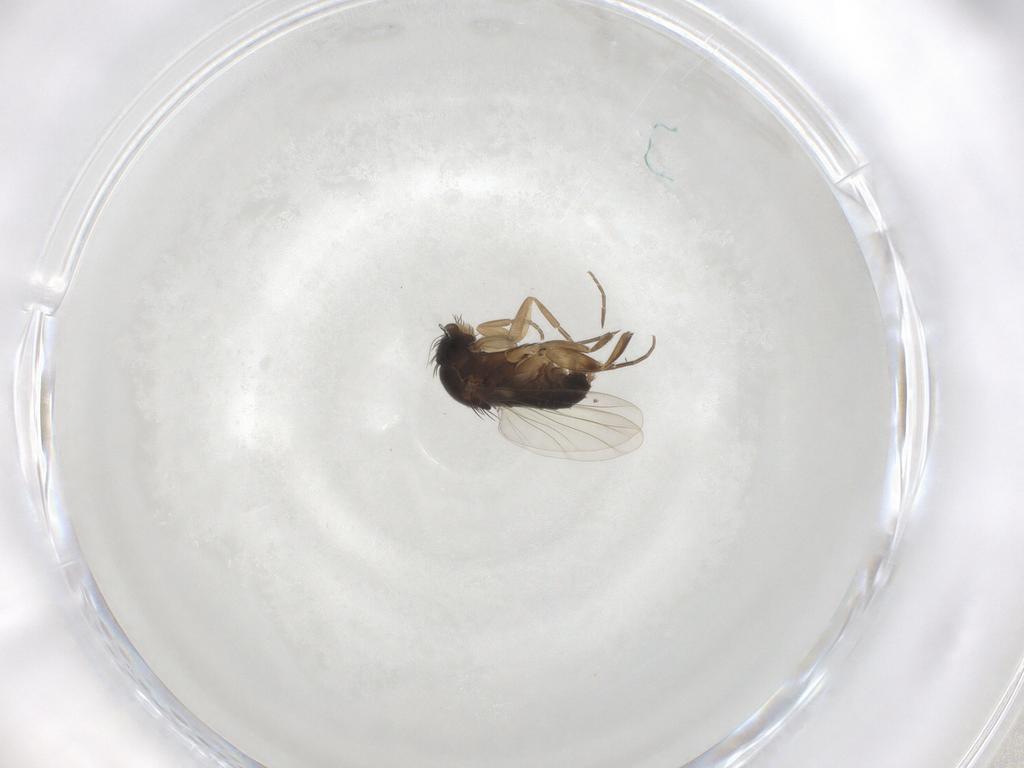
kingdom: Animalia
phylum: Arthropoda
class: Insecta
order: Diptera
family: Phoridae
